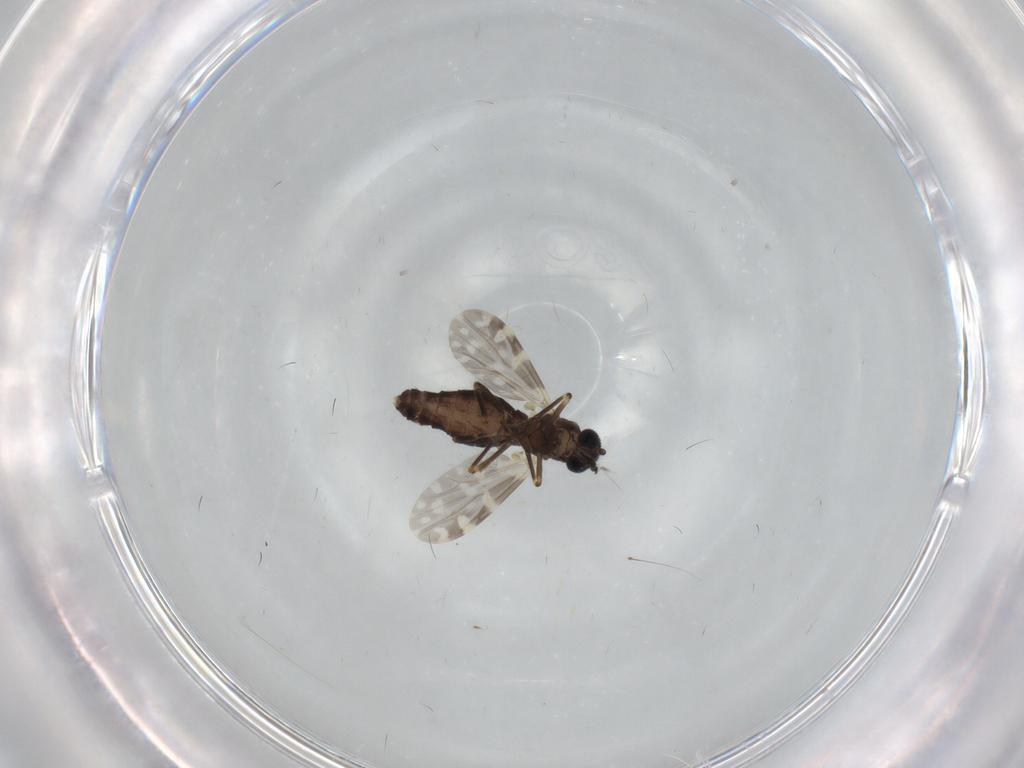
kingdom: Animalia
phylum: Arthropoda
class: Insecta
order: Diptera
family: Ceratopogonidae
